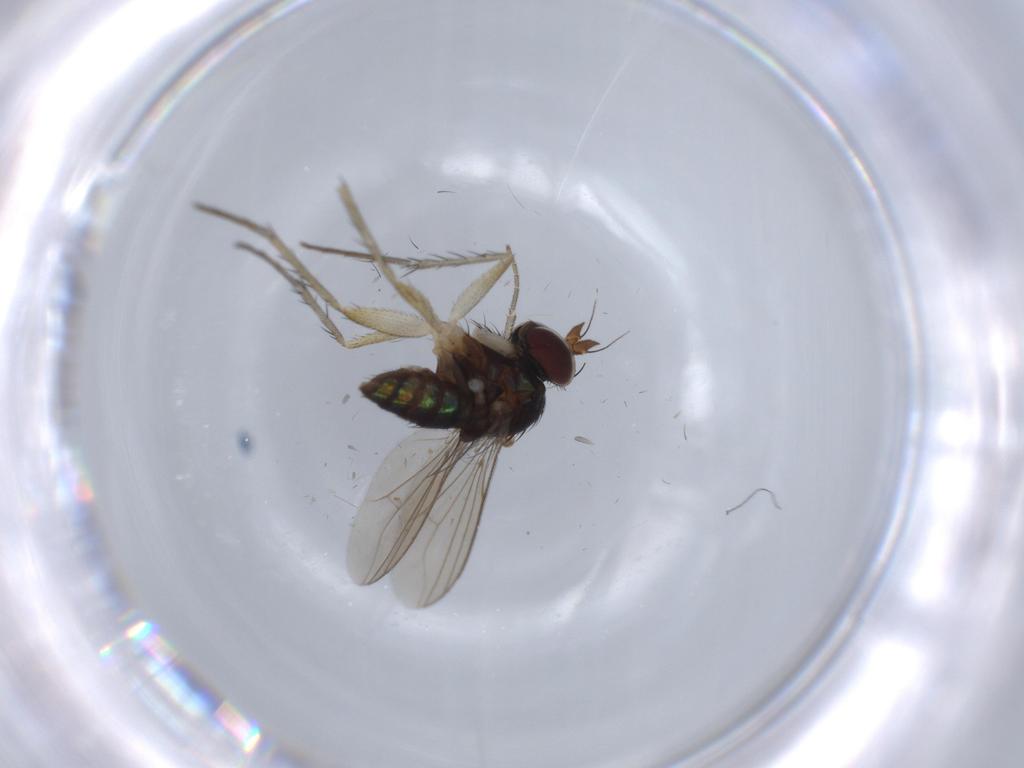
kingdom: Animalia
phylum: Arthropoda
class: Insecta
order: Diptera
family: Dolichopodidae
